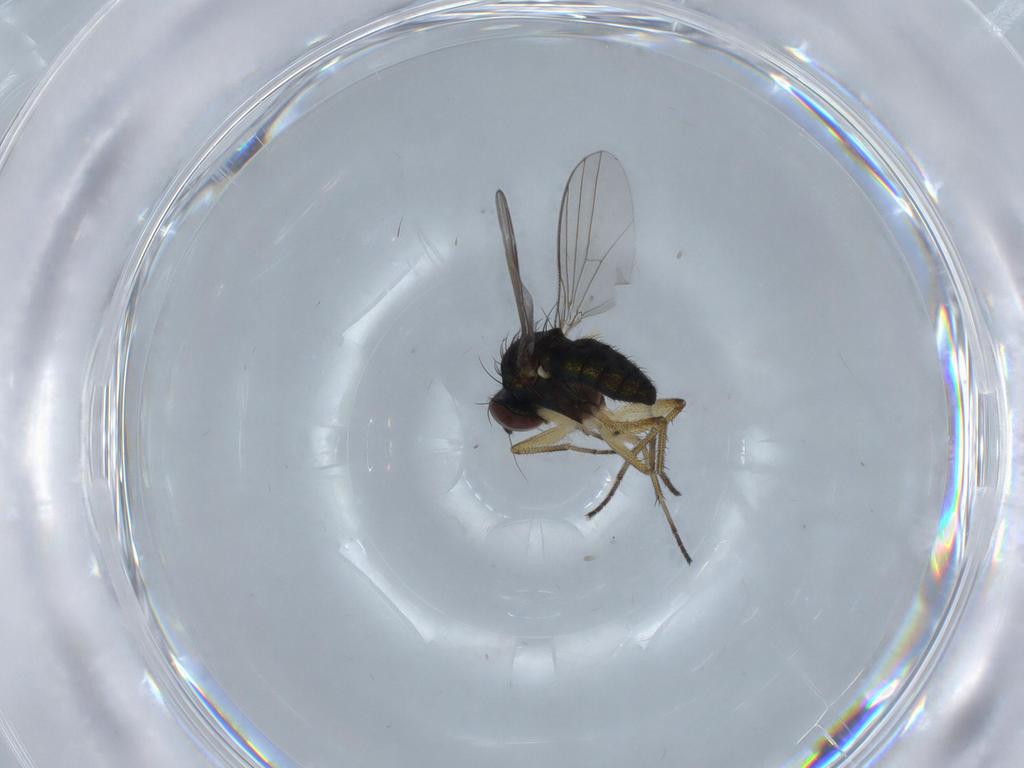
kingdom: Animalia
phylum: Arthropoda
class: Insecta
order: Diptera
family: Dolichopodidae
